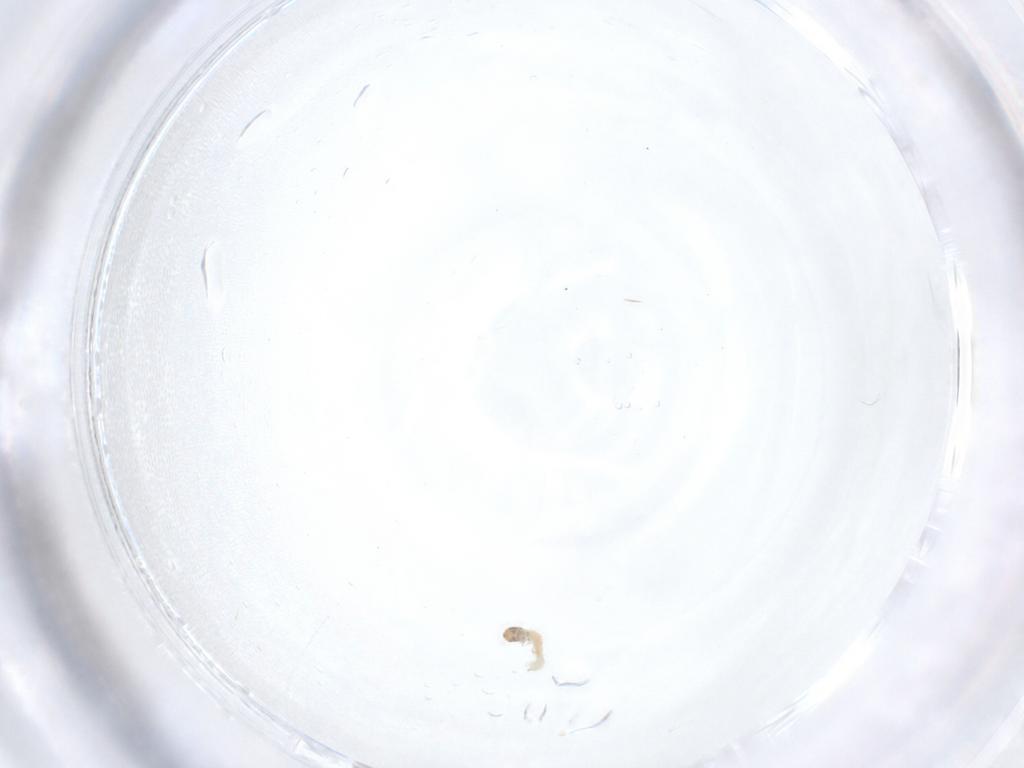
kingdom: Animalia
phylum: Arthropoda
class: Insecta
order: Lepidoptera
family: Lecithoceridae
